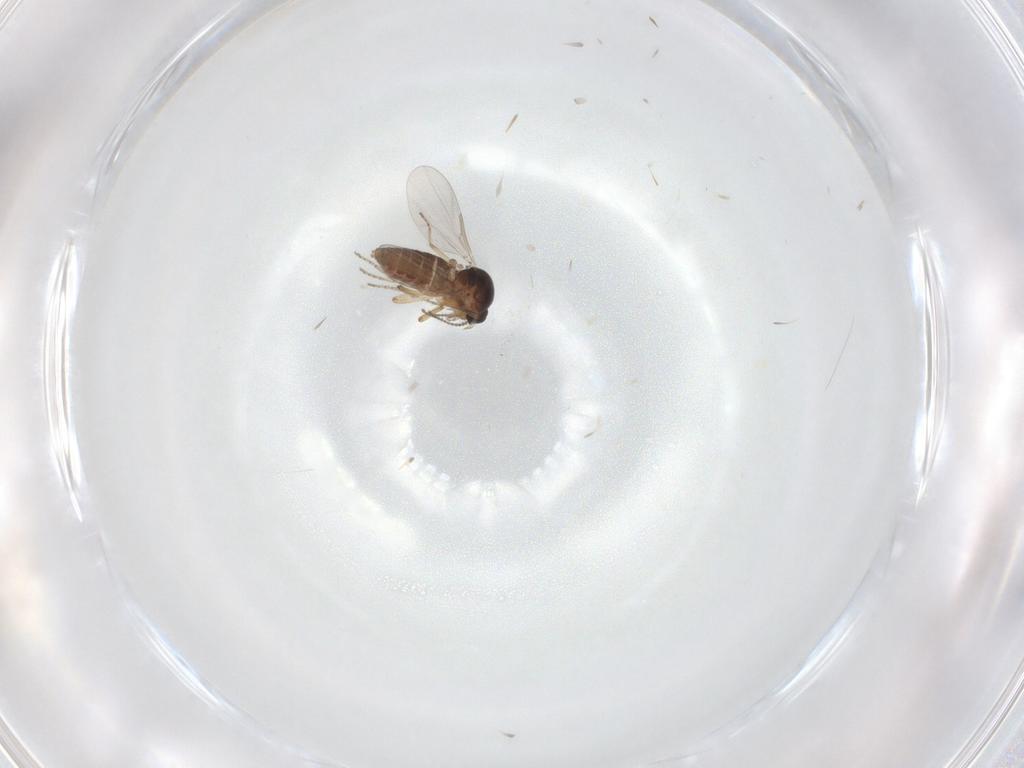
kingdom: Animalia
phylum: Arthropoda
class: Insecta
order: Diptera
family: Ceratopogonidae
